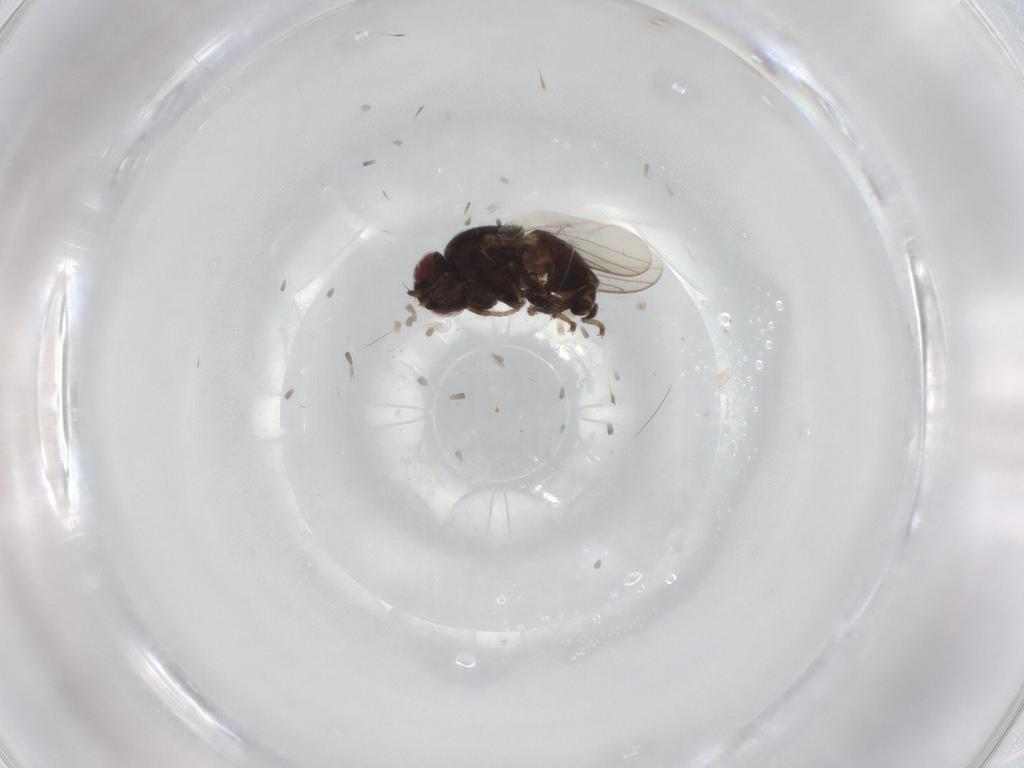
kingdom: Animalia
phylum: Arthropoda
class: Insecta
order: Diptera
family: Chloropidae
